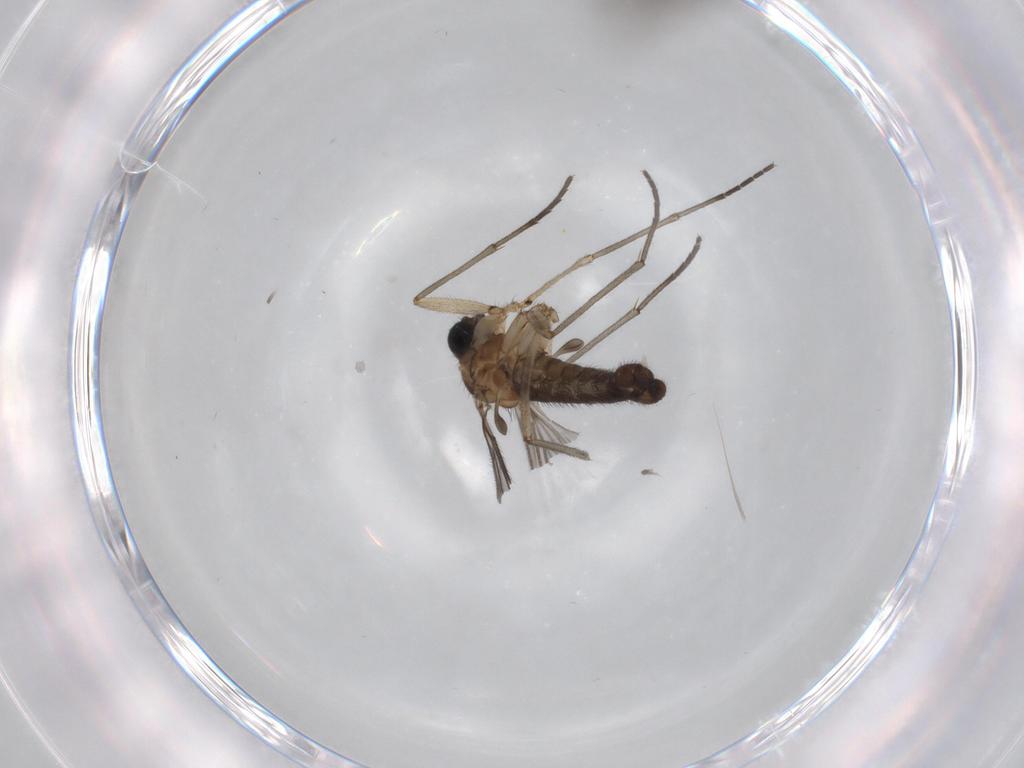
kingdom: Animalia
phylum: Arthropoda
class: Insecta
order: Diptera
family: Sciaridae
